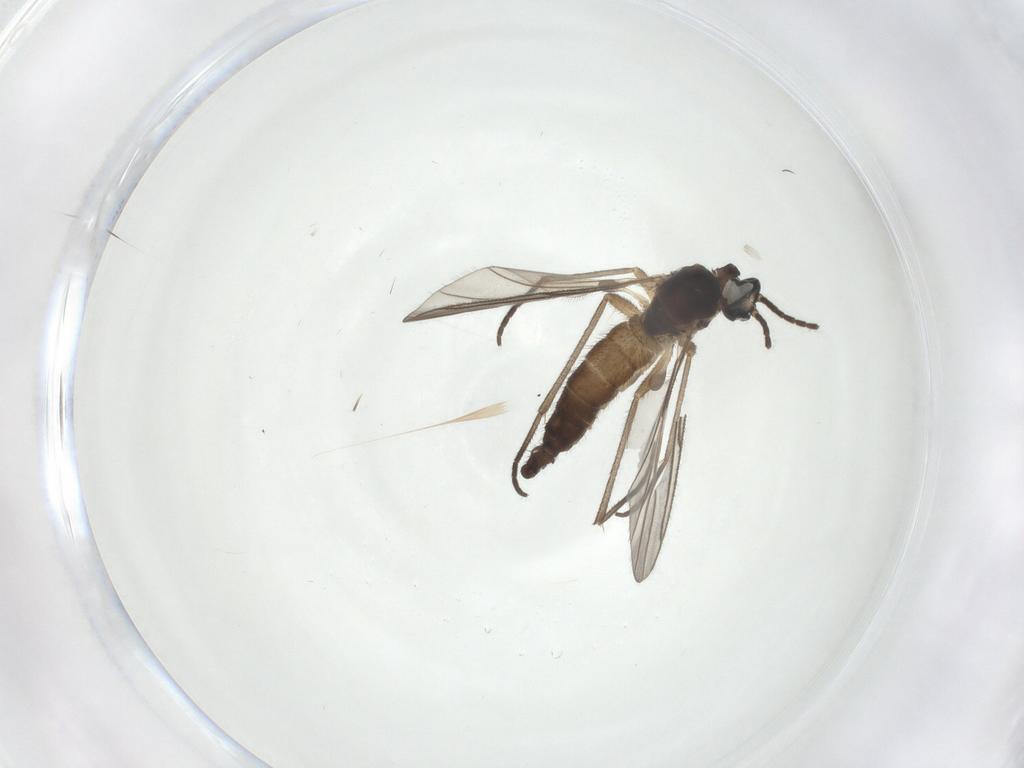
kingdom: Animalia
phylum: Arthropoda
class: Insecta
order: Diptera
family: Sciaridae
